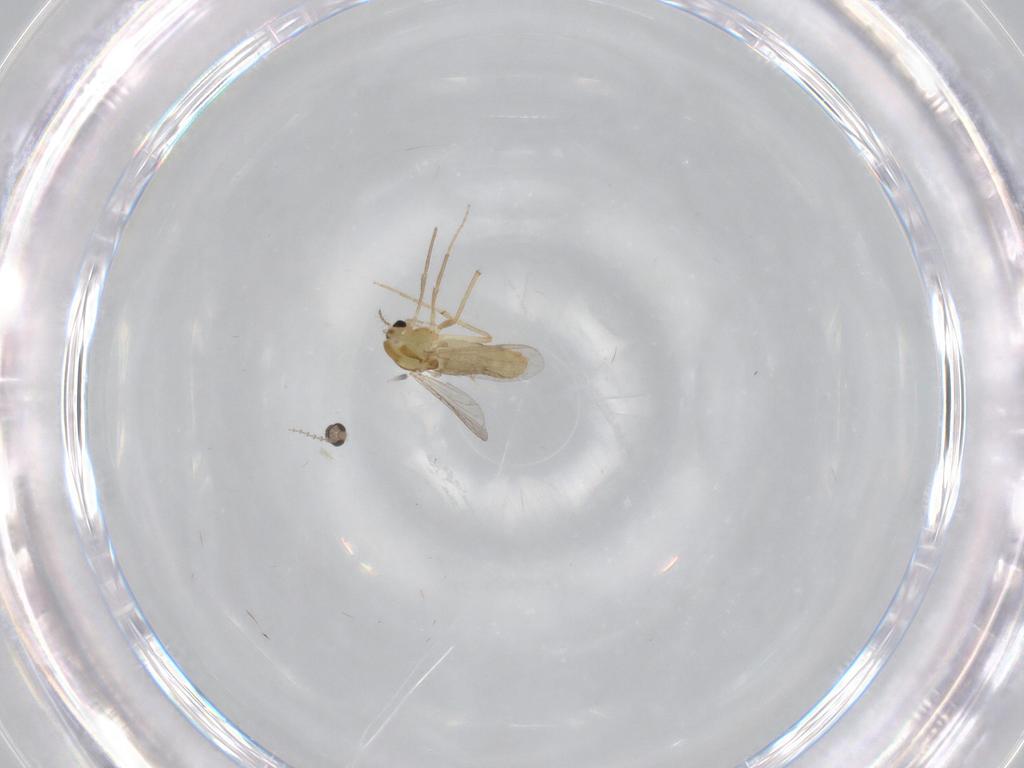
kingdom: Animalia
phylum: Arthropoda
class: Insecta
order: Diptera
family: Chironomidae
